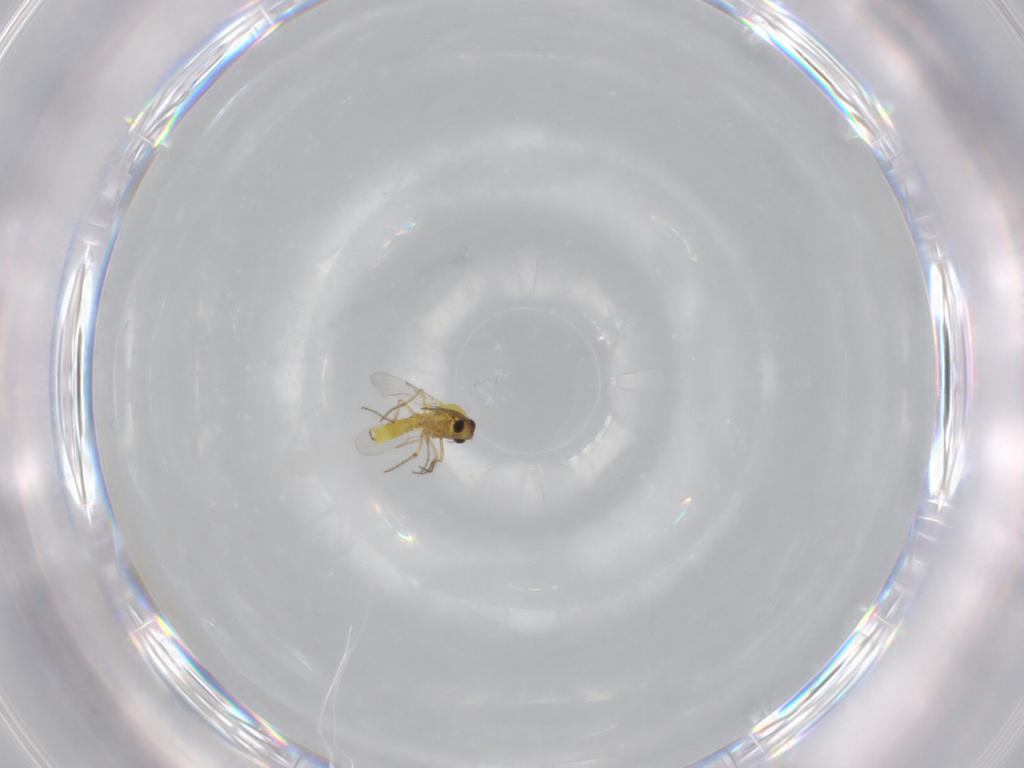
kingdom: Animalia
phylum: Arthropoda
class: Insecta
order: Diptera
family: Ceratopogonidae
